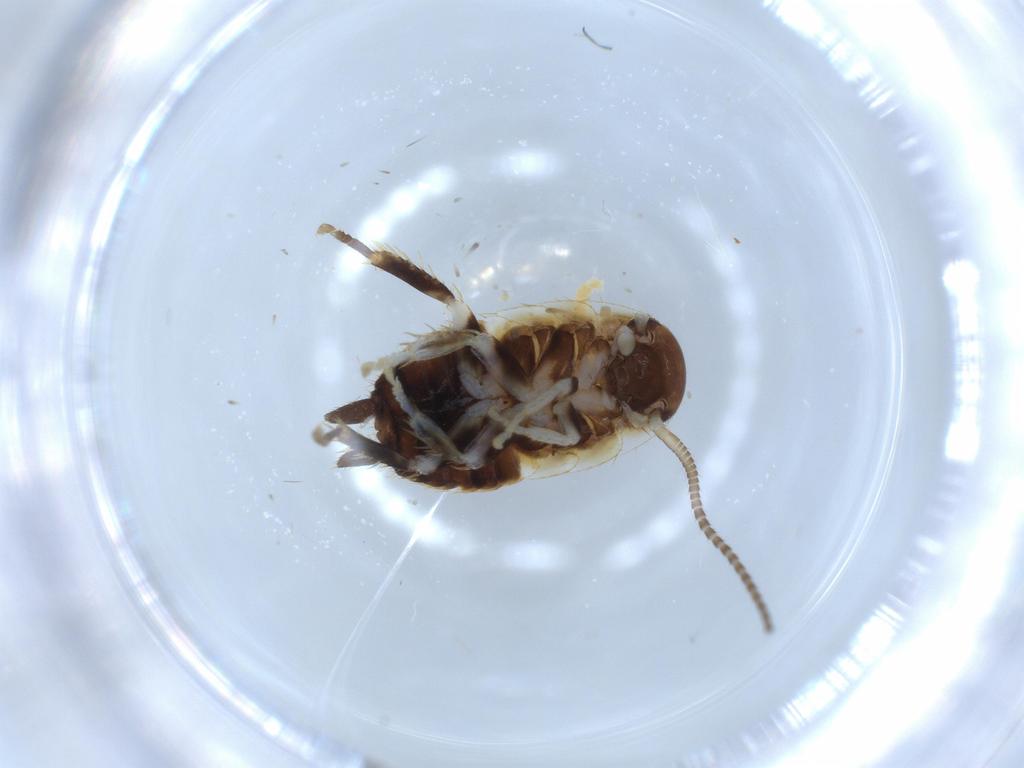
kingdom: Animalia
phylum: Arthropoda
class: Insecta
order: Blattodea
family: Ectobiidae
